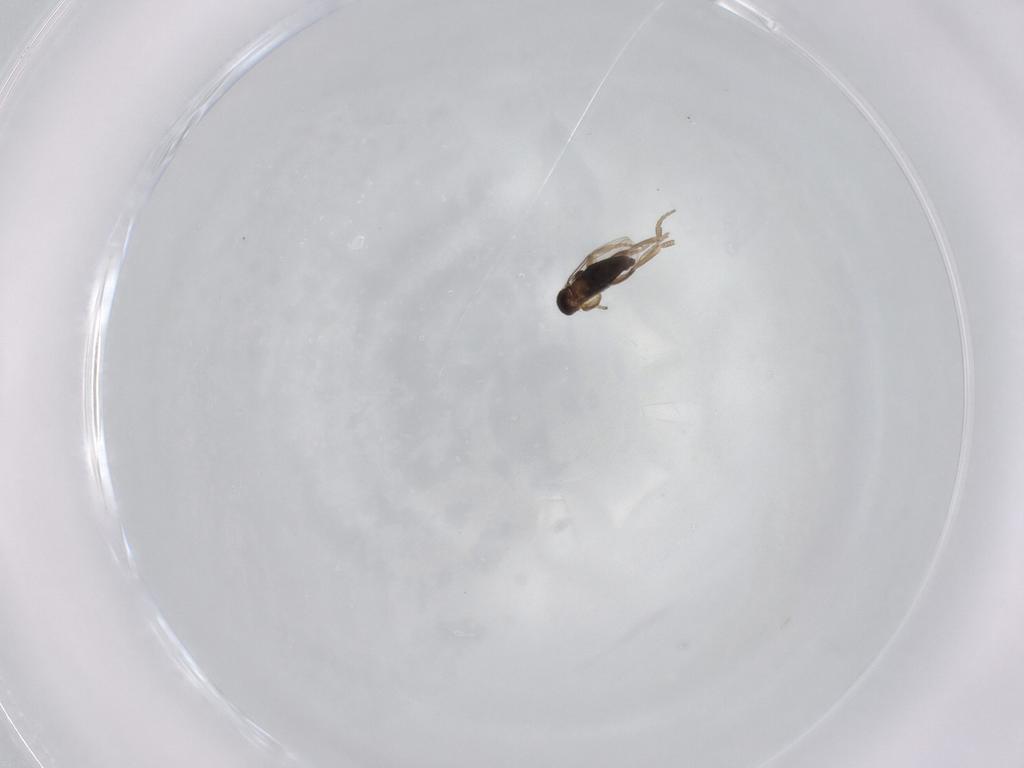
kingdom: Animalia
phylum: Arthropoda
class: Insecta
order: Diptera
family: Phoridae
